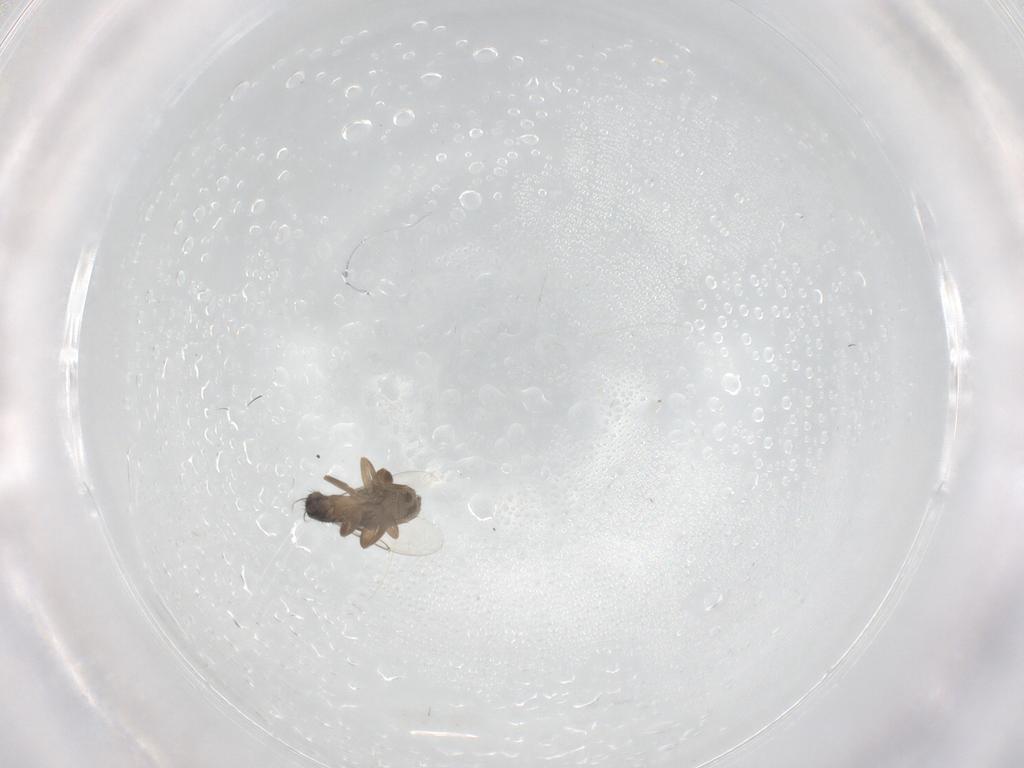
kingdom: Animalia
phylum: Arthropoda
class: Insecta
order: Diptera
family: Phoridae
